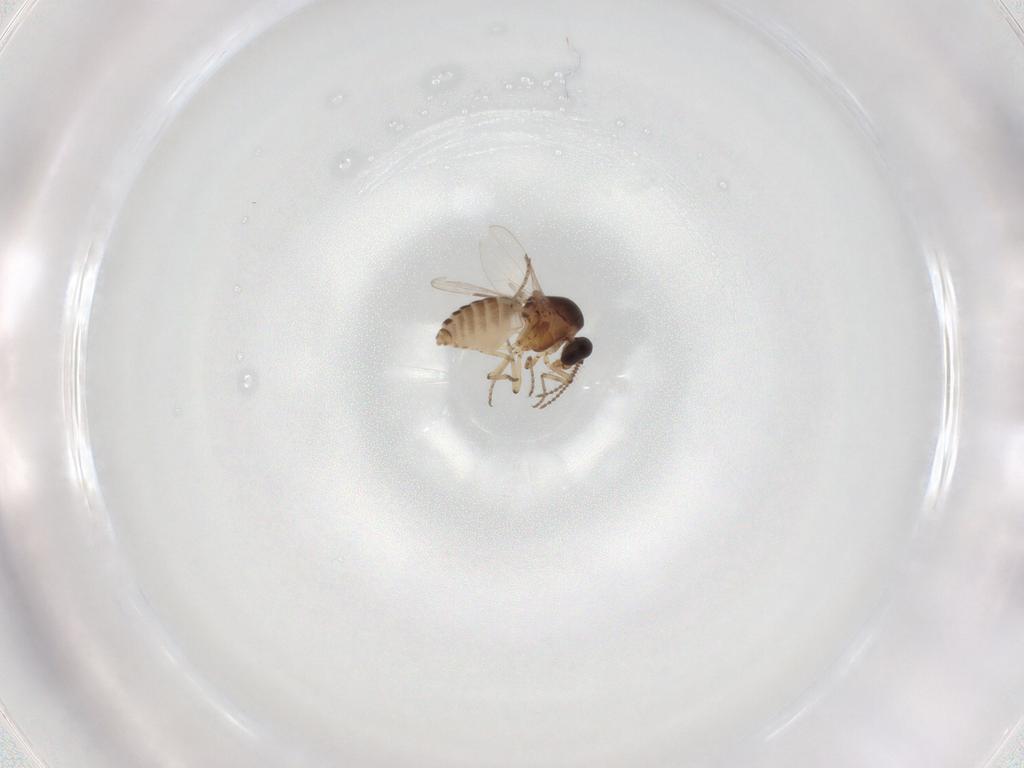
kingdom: Animalia
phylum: Arthropoda
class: Insecta
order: Diptera
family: Ceratopogonidae
